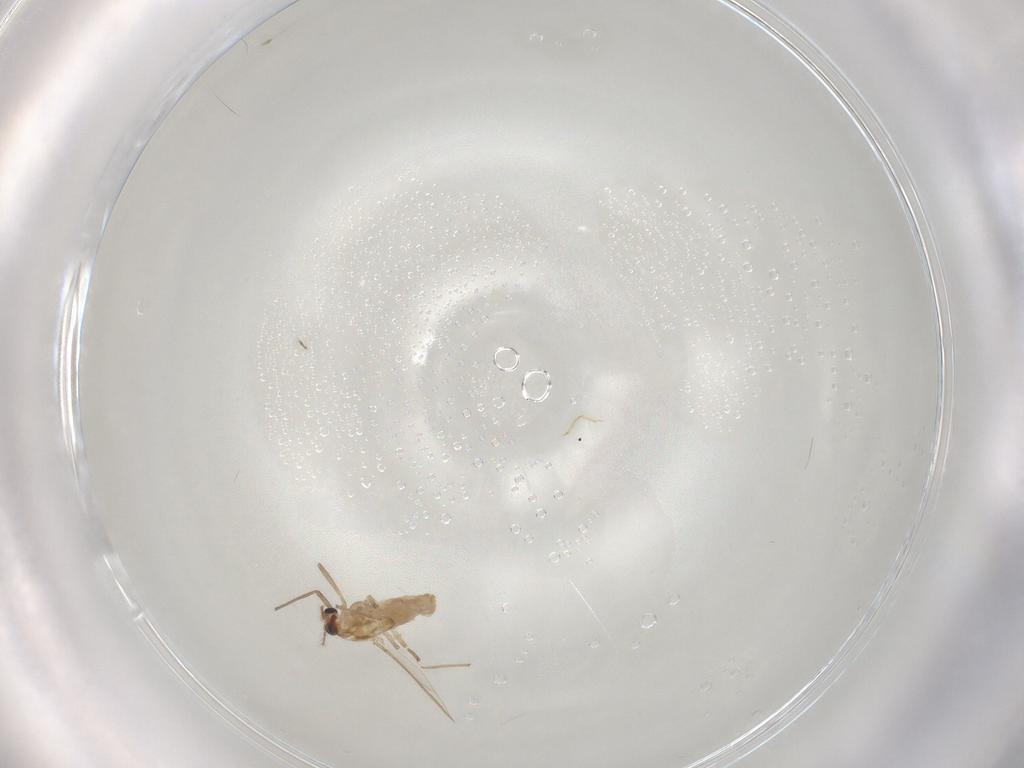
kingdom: Animalia
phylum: Arthropoda
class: Insecta
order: Diptera
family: Chironomidae
